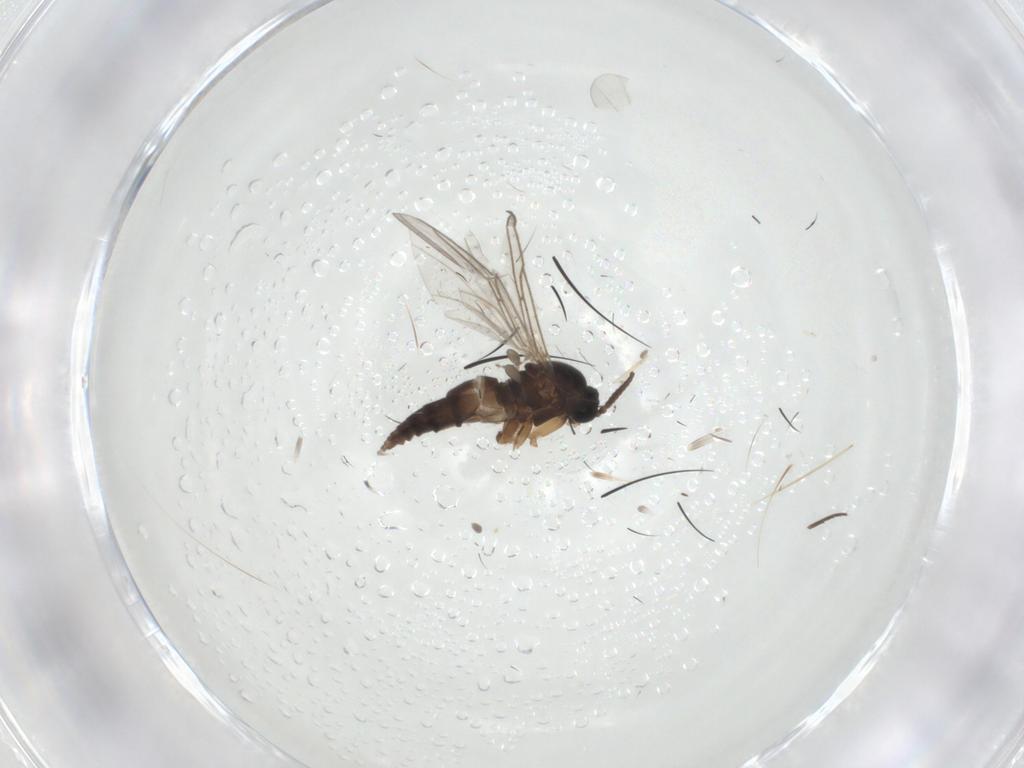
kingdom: Animalia
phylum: Arthropoda
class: Insecta
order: Diptera
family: Sciaridae
